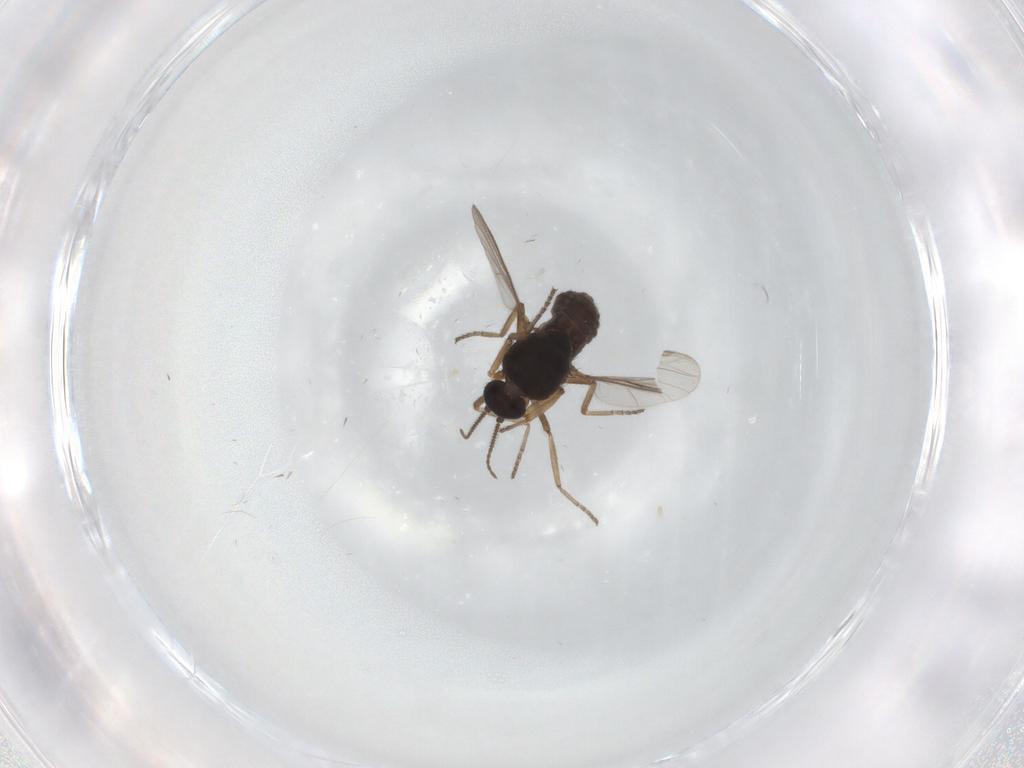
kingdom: Animalia
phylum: Arthropoda
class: Insecta
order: Diptera
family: Ceratopogonidae
